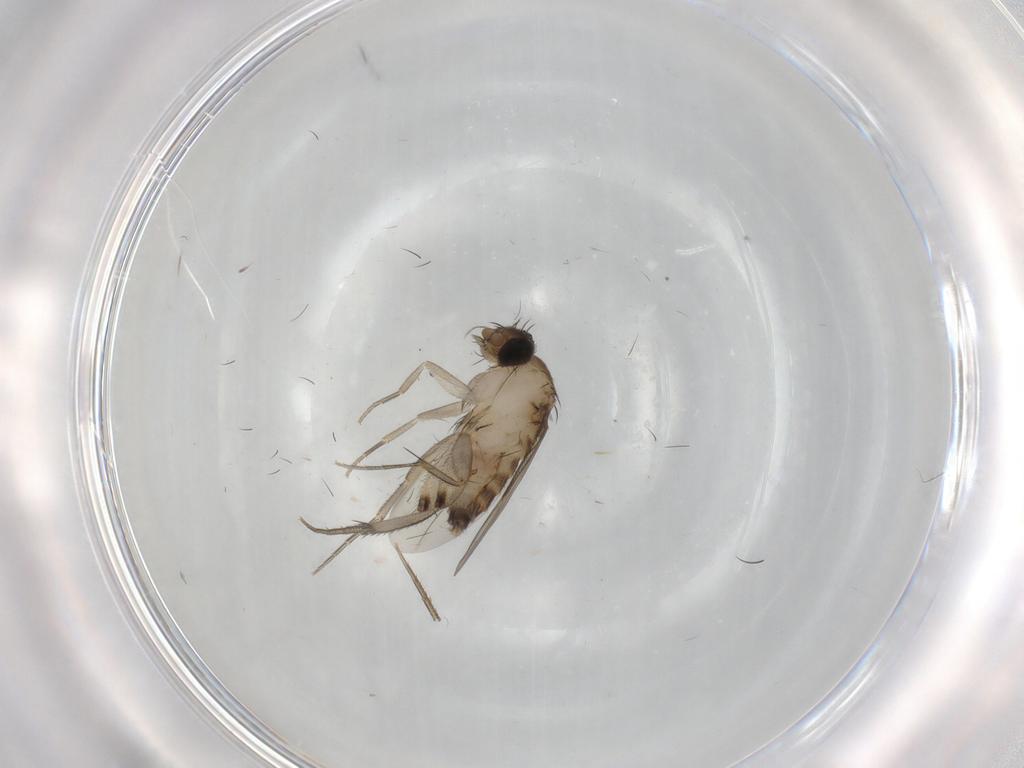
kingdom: Animalia
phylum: Arthropoda
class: Insecta
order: Diptera
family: Phoridae
